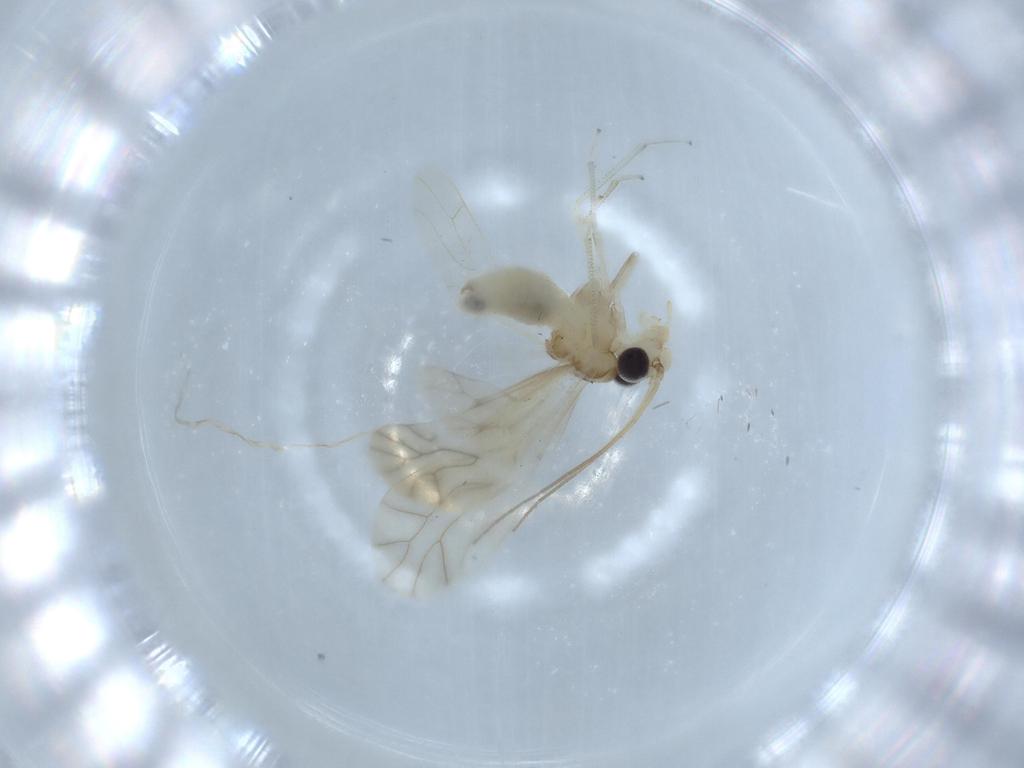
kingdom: Animalia
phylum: Arthropoda
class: Insecta
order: Psocodea
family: Caeciliusidae
